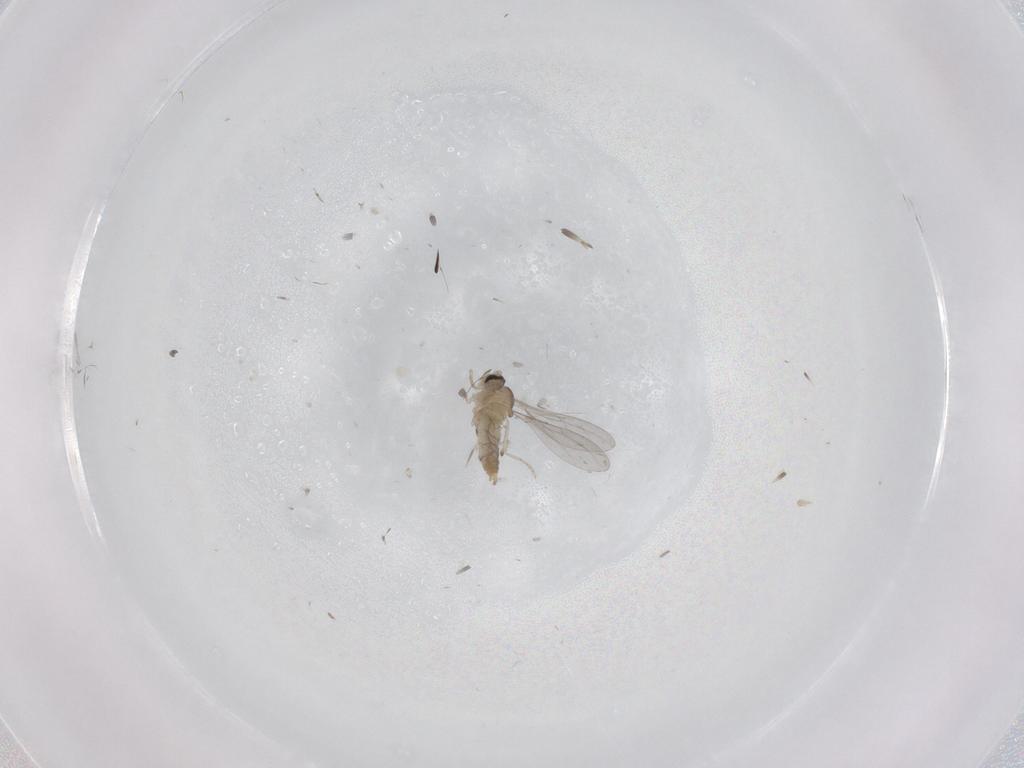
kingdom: Animalia
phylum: Arthropoda
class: Insecta
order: Diptera
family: Cecidomyiidae
